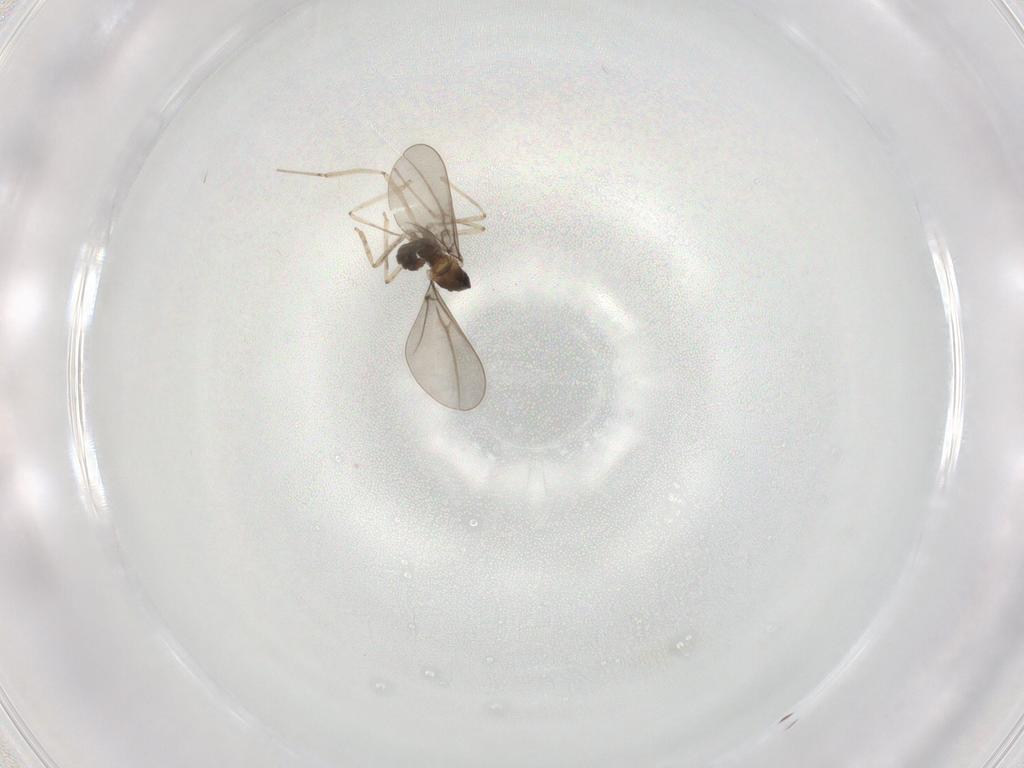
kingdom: Animalia
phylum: Arthropoda
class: Insecta
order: Diptera
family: Cecidomyiidae
